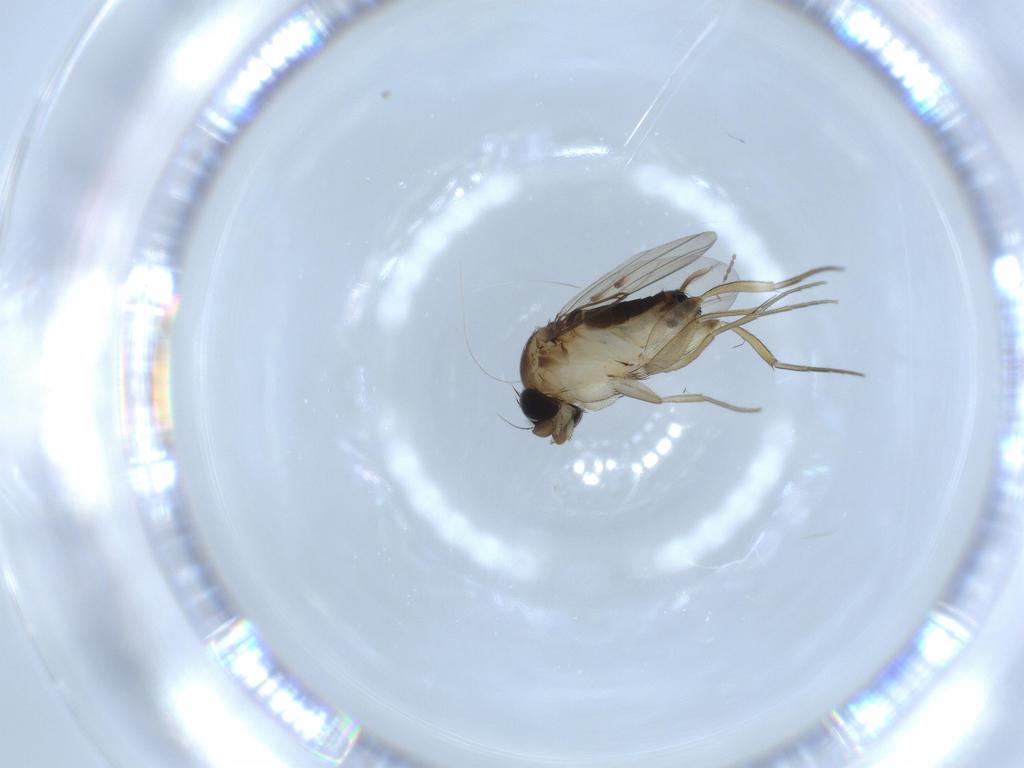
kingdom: Animalia
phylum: Arthropoda
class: Insecta
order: Diptera
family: Phoridae
